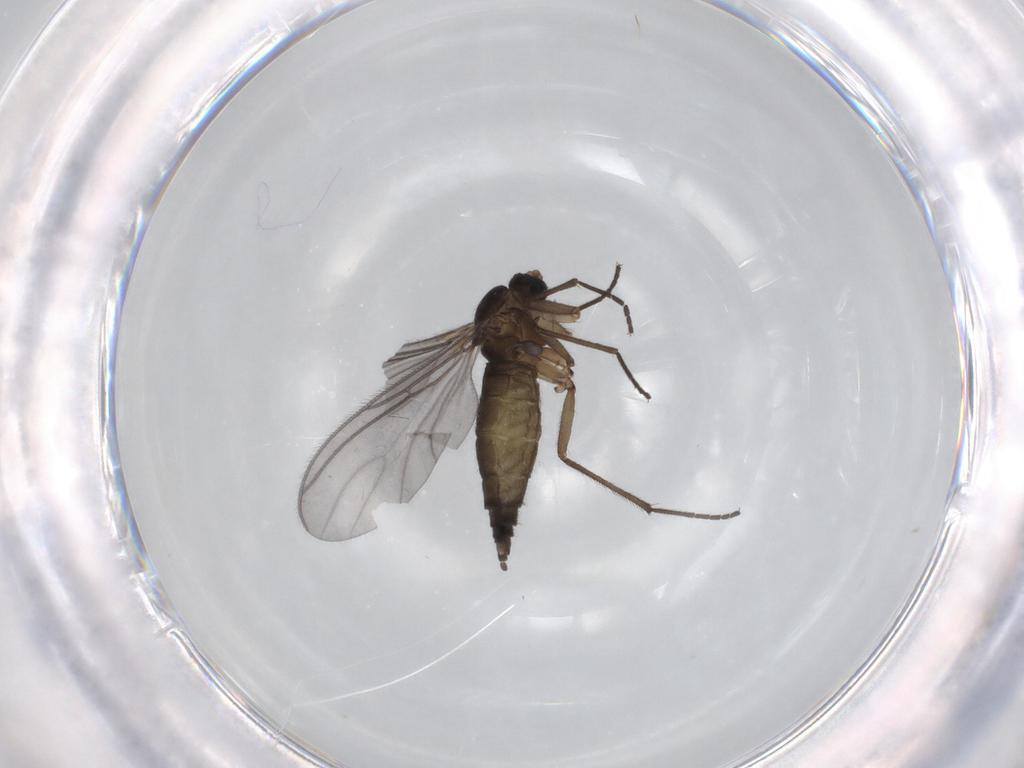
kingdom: Animalia
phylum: Arthropoda
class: Insecta
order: Diptera
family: Sciaridae
